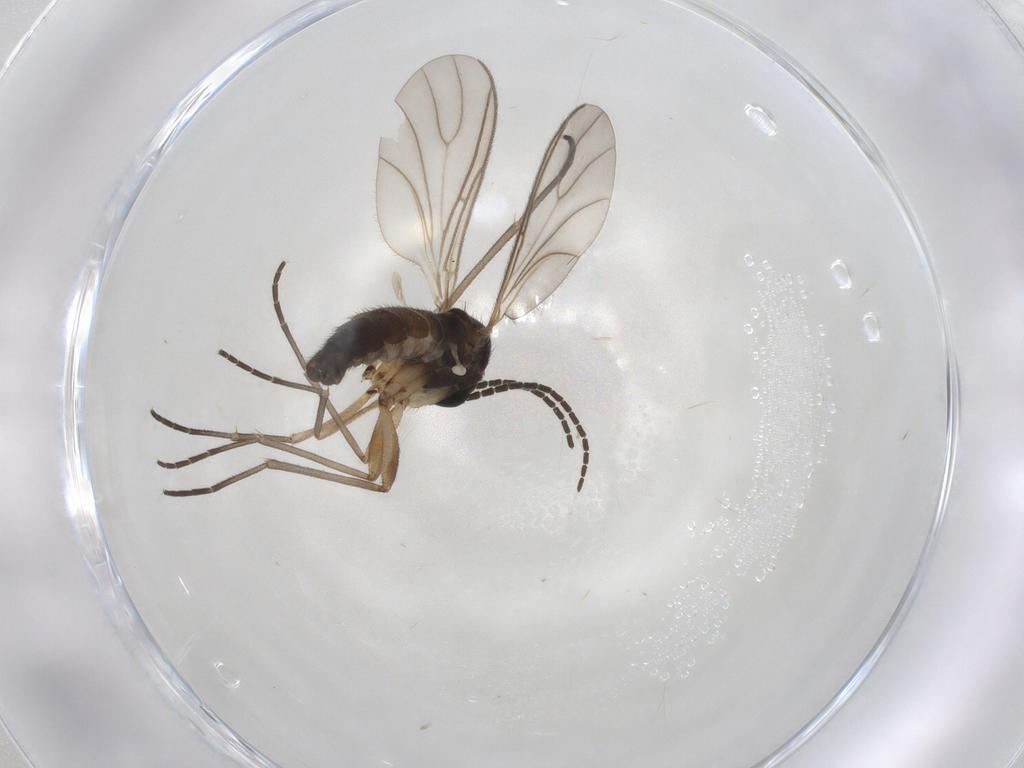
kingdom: Animalia
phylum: Arthropoda
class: Insecta
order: Diptera
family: Sciaridae
